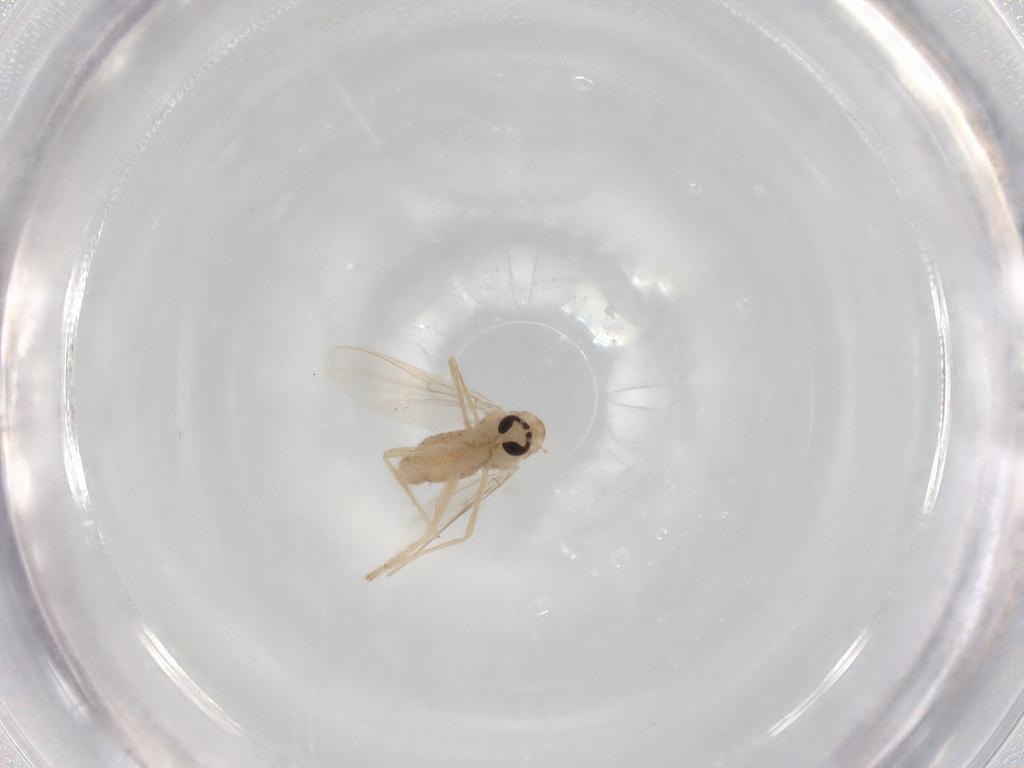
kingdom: Animalia
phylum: Arthropoda
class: Insecta
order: Diptera
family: Chironomidae
